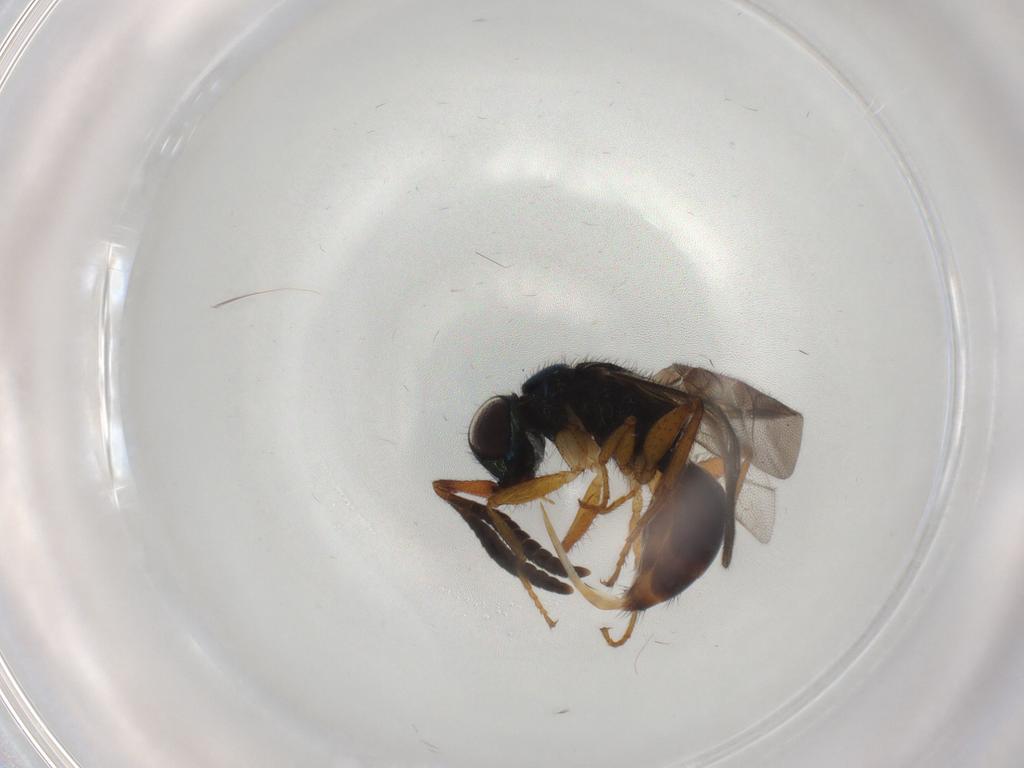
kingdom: Animalia
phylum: Arthropoda
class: Insecta
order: Hymenoptera
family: Chrysididae
